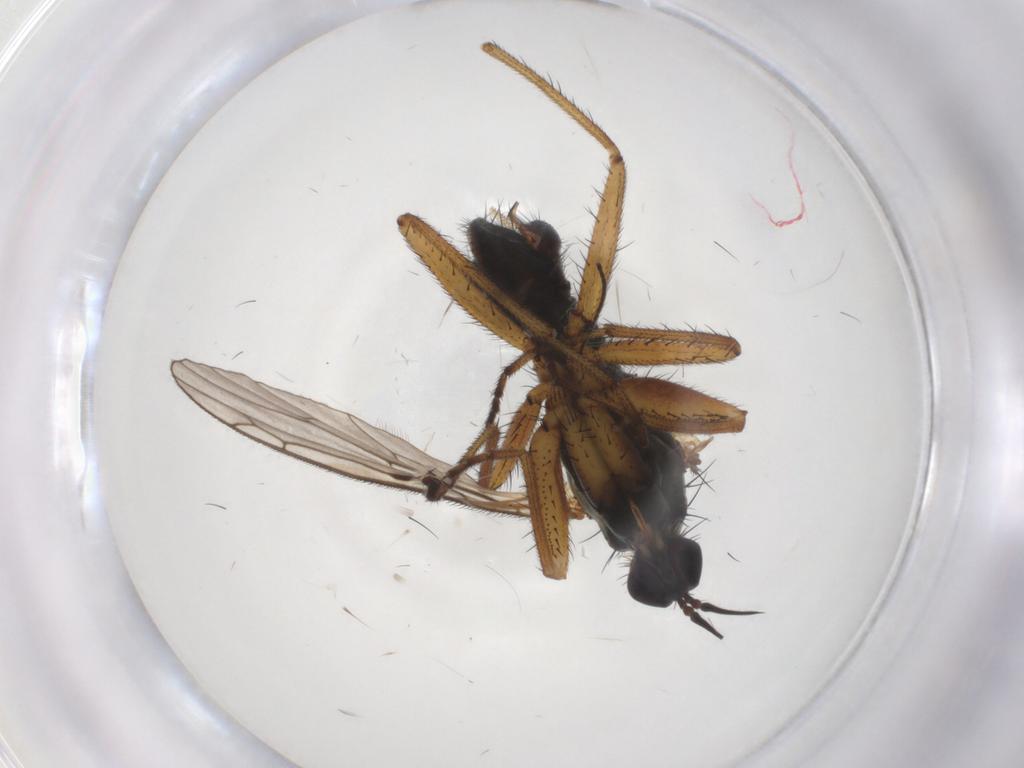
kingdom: Animalia
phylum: Arthropoda
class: Insecta
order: Diptera
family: Empididae
